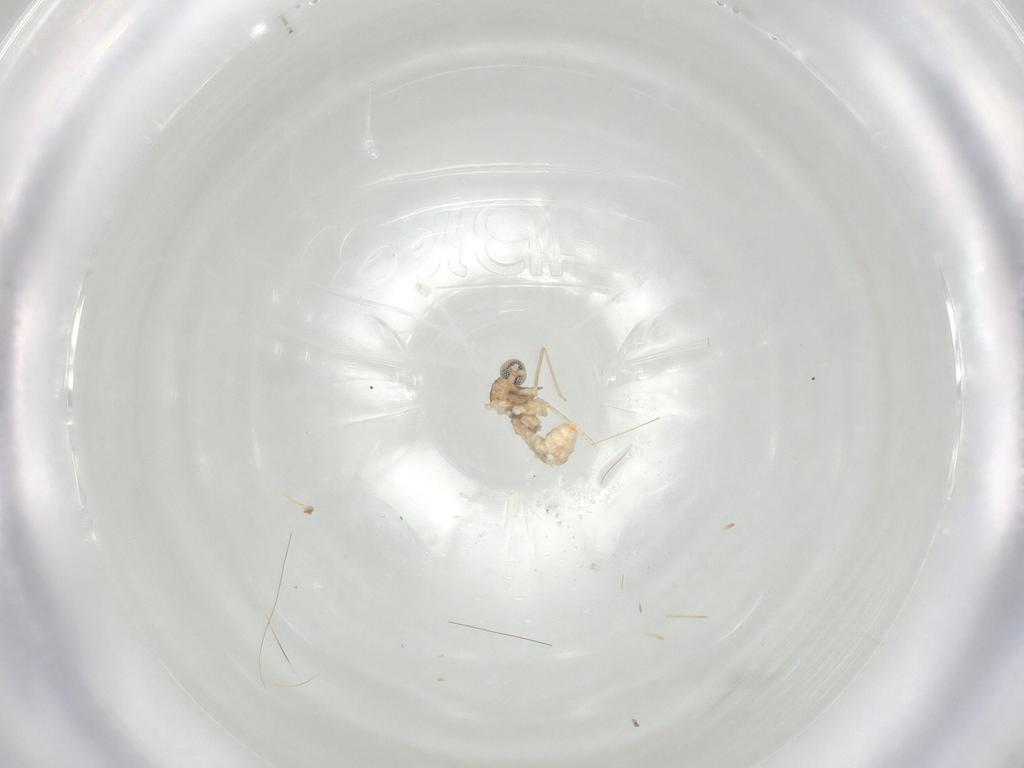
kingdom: Animalia
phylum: Arthropoda
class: Insecta
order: Diptera
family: Cecidomyiidae
